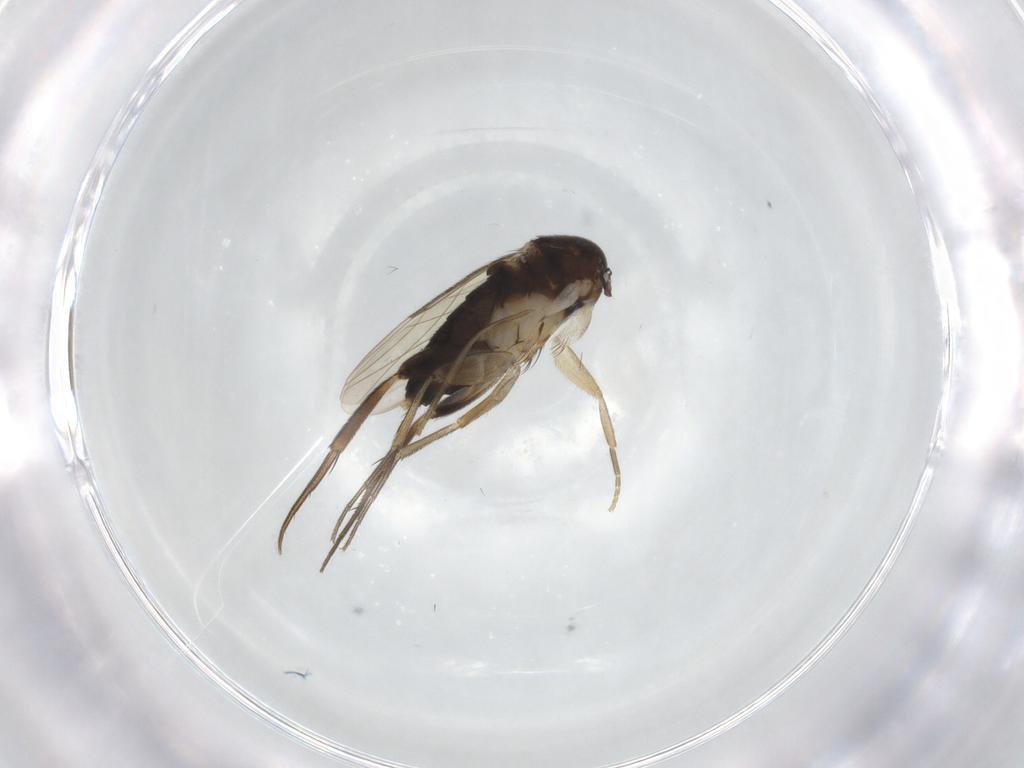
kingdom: Animalia
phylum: Arthropoda
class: Insecta
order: Diptera
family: Phoridae
